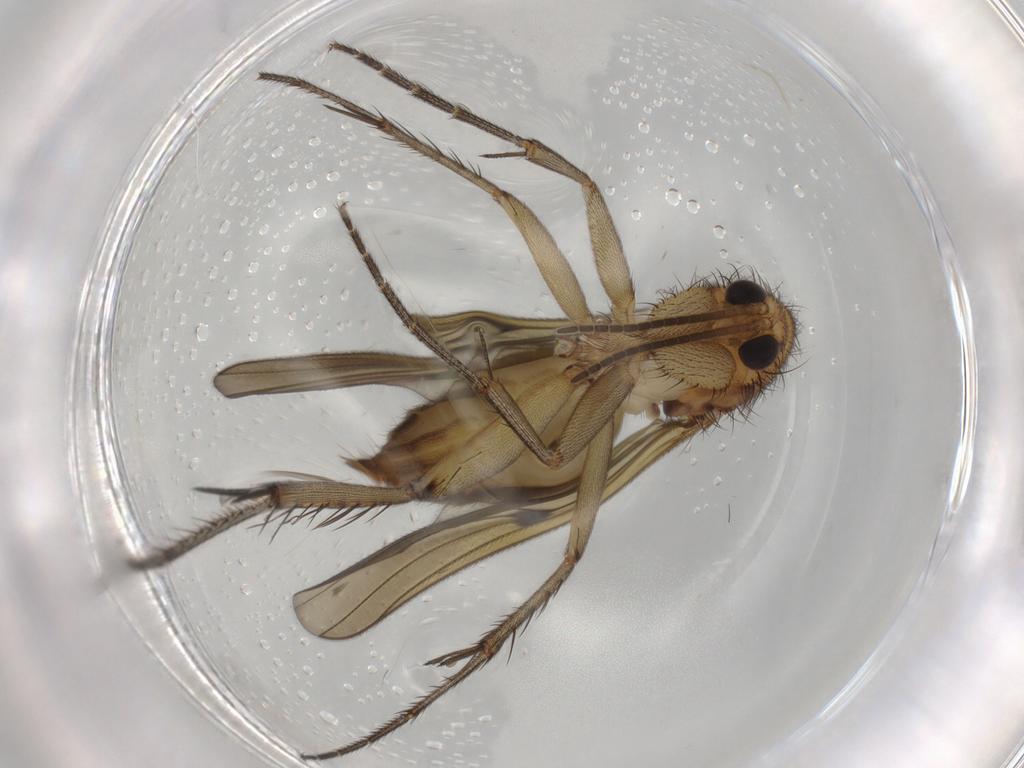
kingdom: Animalia
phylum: Arthropoda
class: Insecta
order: Diptera
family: Mycetophilidae
